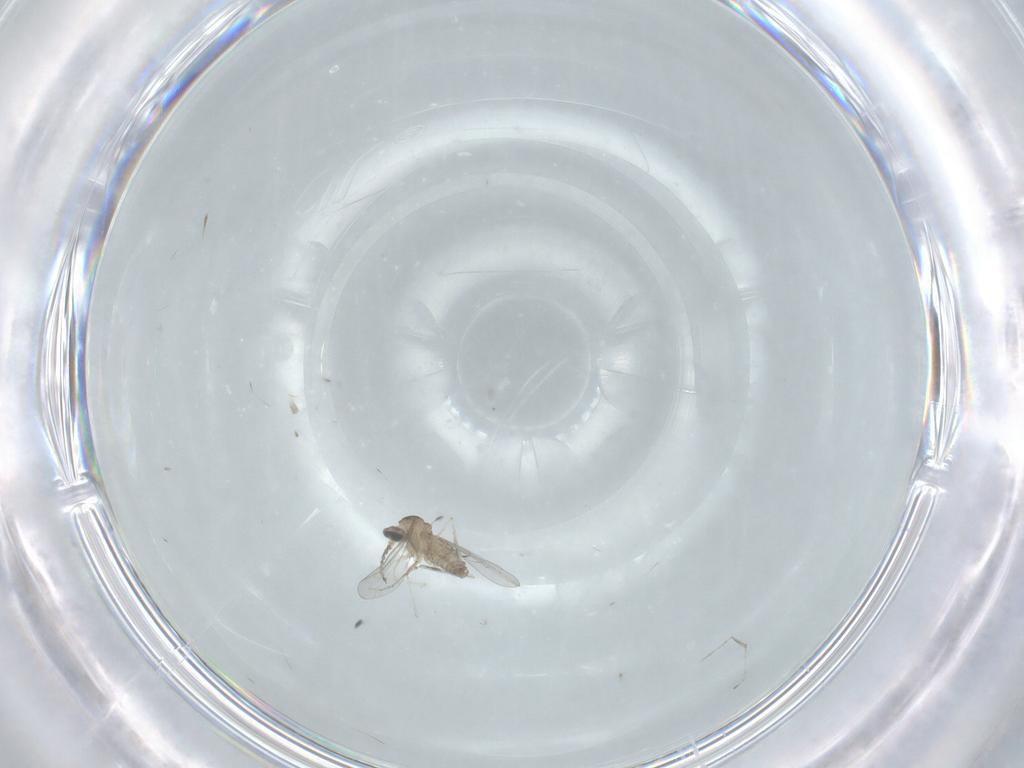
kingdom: Animalia
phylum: Arthropoda
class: Insecta
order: Diptera
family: Cecidomyiidae
